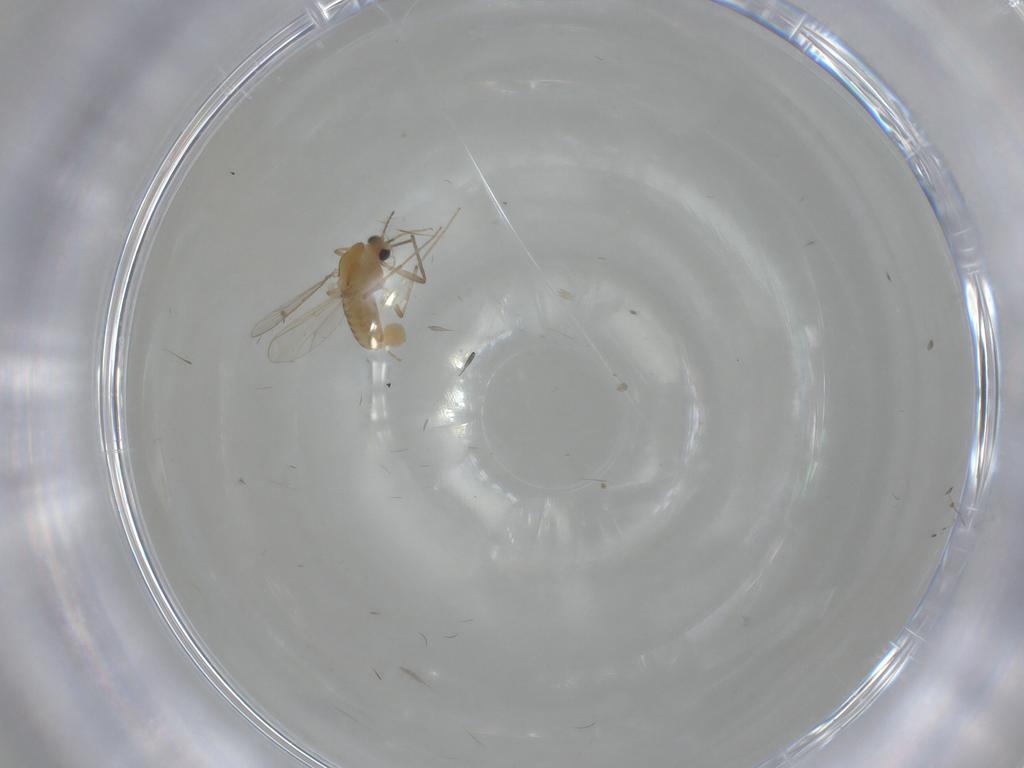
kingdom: Animalia
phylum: Arthropoda
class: Insecta
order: Diptera
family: Chironomidae
